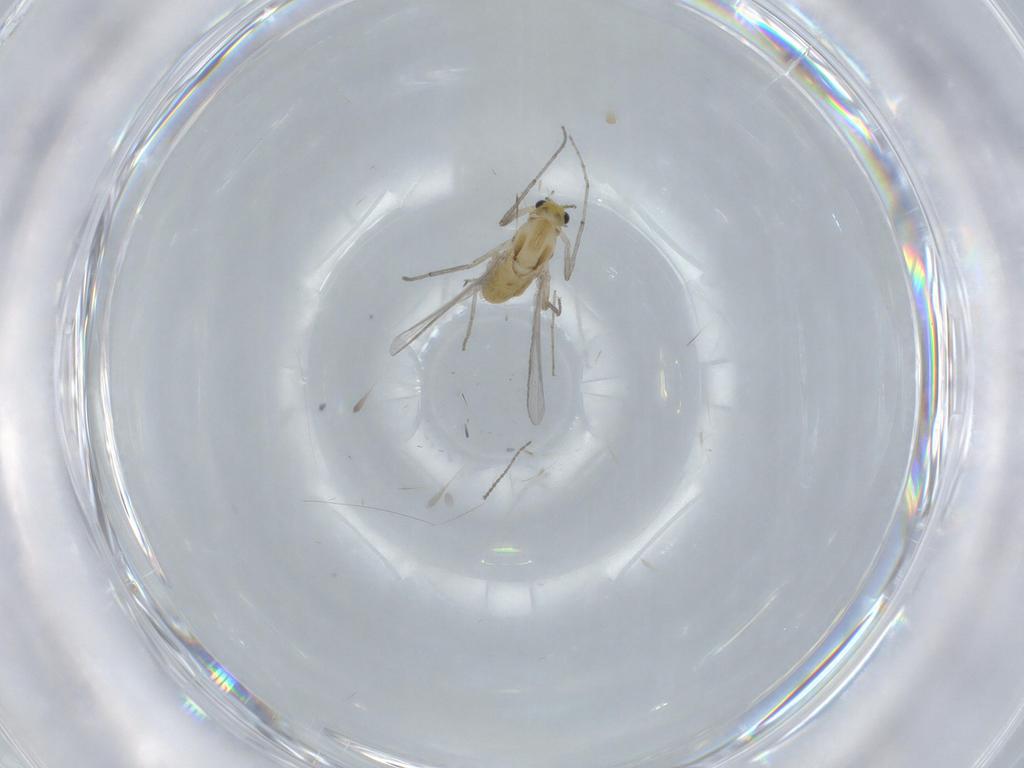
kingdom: Animalia
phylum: Arthropoda
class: Insecta
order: Diptera
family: Chironomidae
